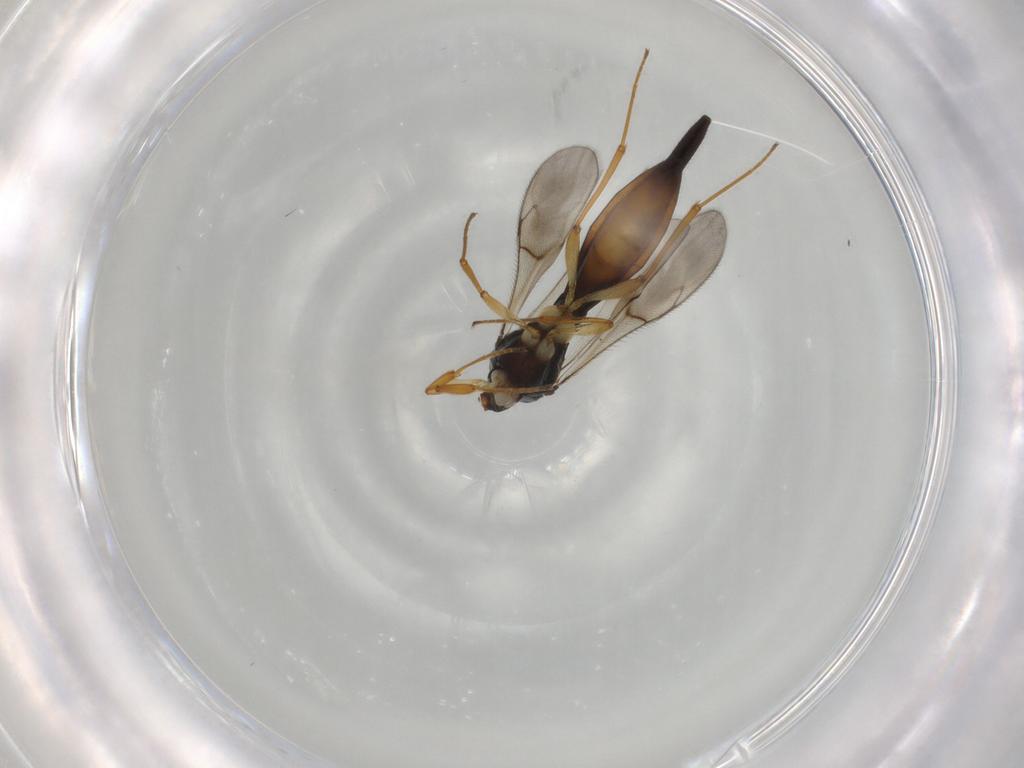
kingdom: Animalia
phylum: Arthropoda
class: Insecta
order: Hymenoptera
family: Scelionidae
